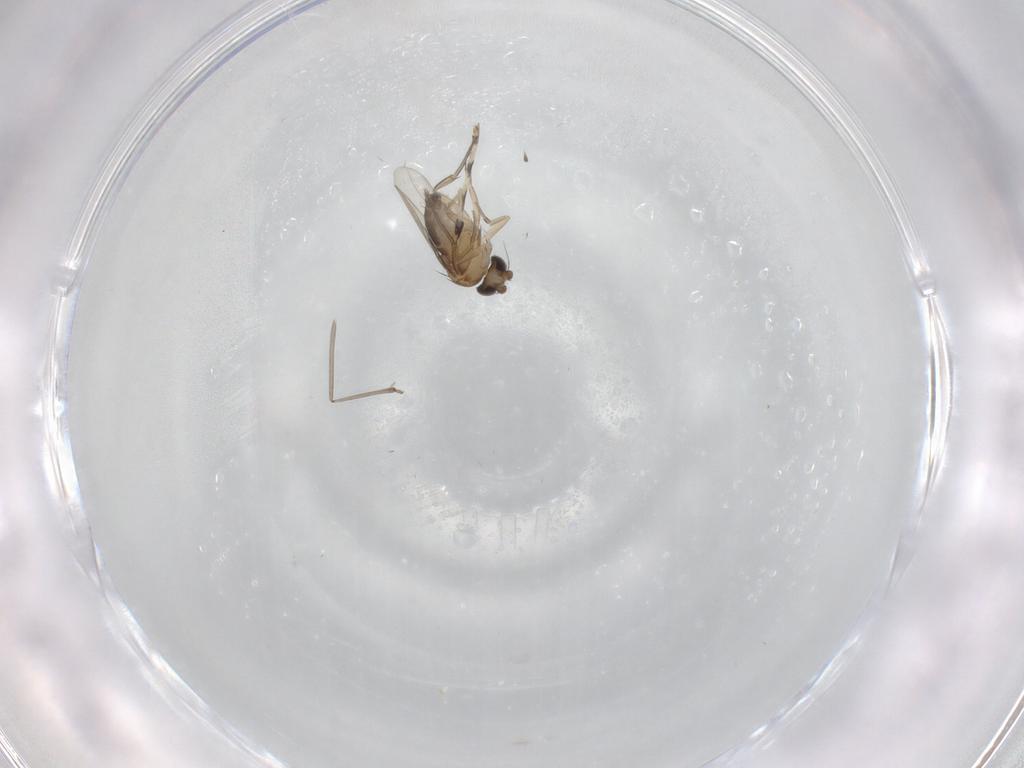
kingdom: Animalia
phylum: Arthropoda
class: Insecta
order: Diptera
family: Phoridae
